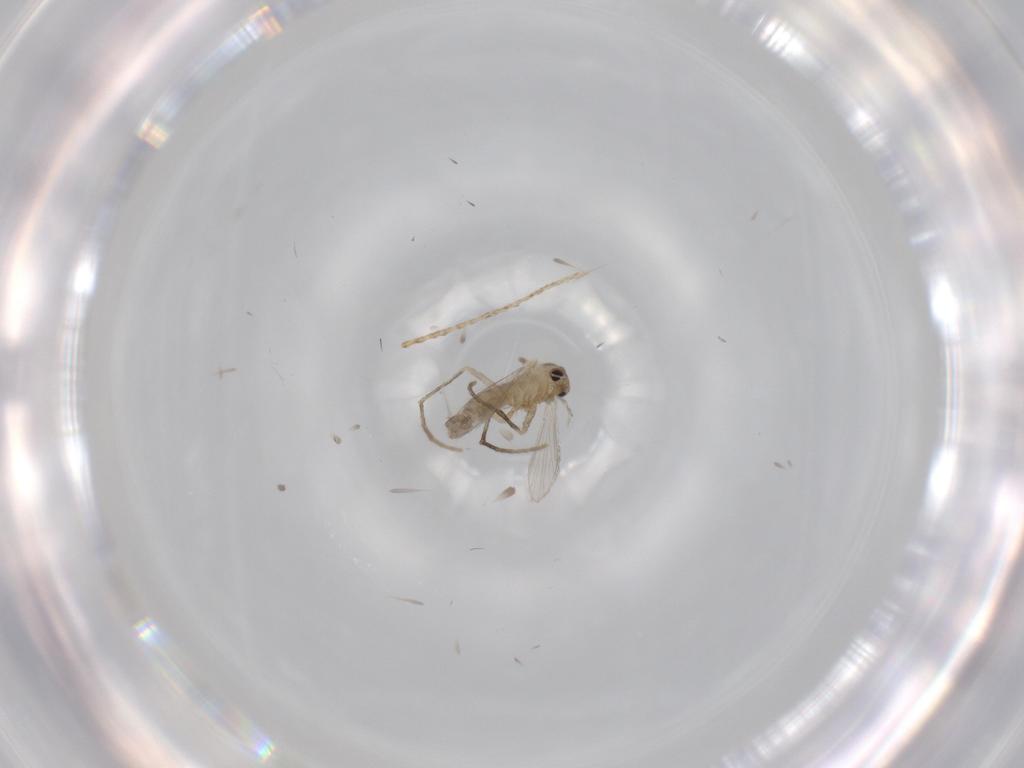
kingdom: Animalia
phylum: Arthropoda
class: Insecta
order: Diptera
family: Psychodidae
